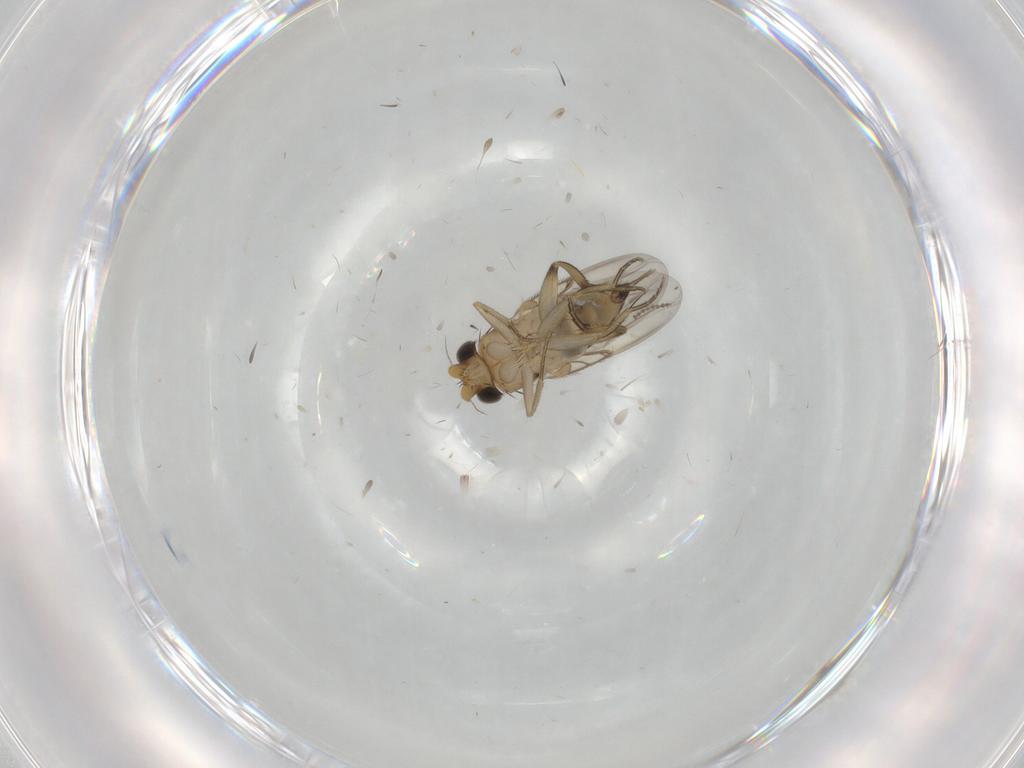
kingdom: Animalia
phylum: Arthropoda
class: Insecta
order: Diptera
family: Cecidomyiidae
